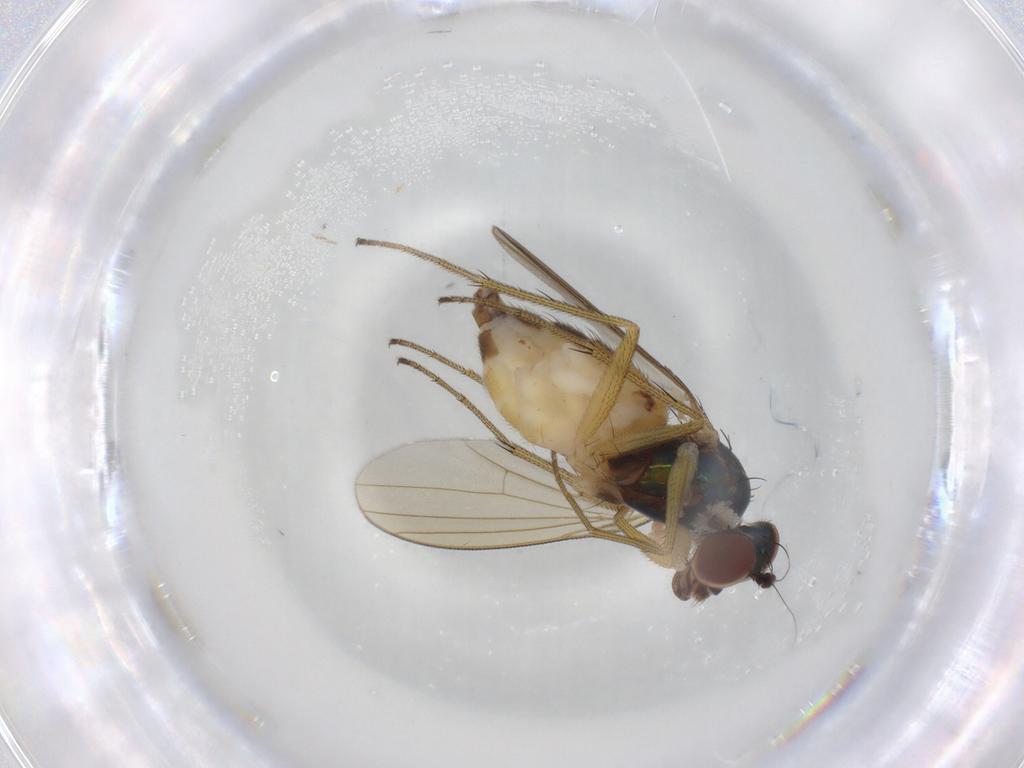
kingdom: Animalia
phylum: Arthropoda
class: Insecta
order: Diptera
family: Dolichopodidae
